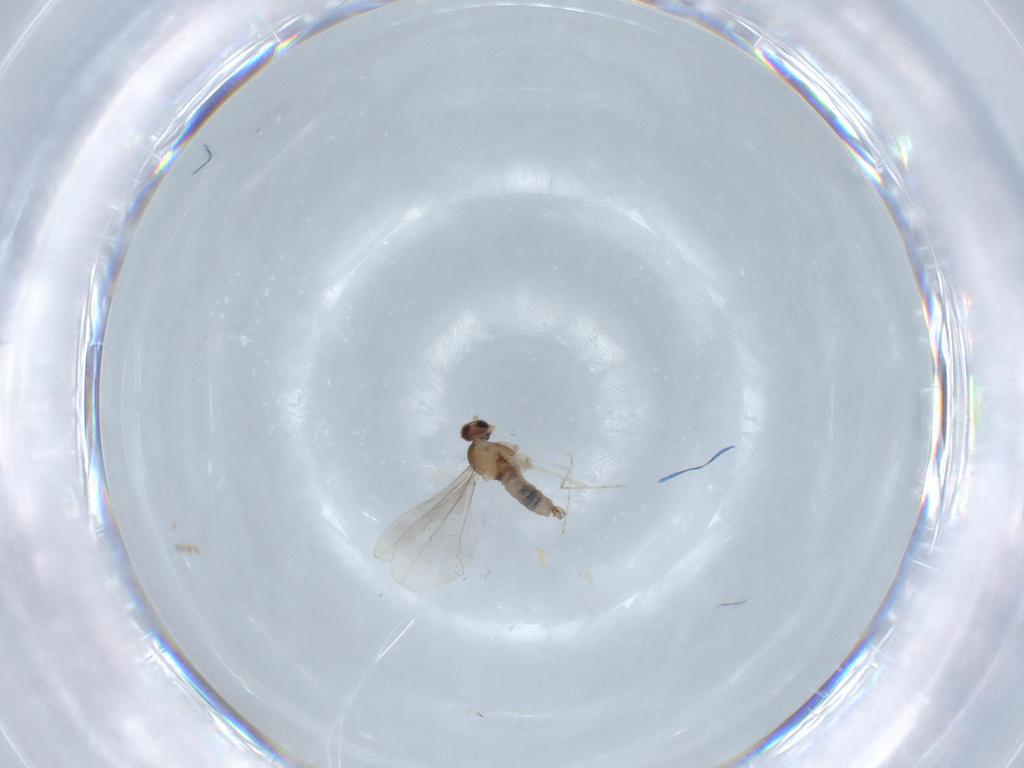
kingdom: Animalia
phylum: Arthropoda
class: Insecta
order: Diptera
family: Cecidomyiidae
